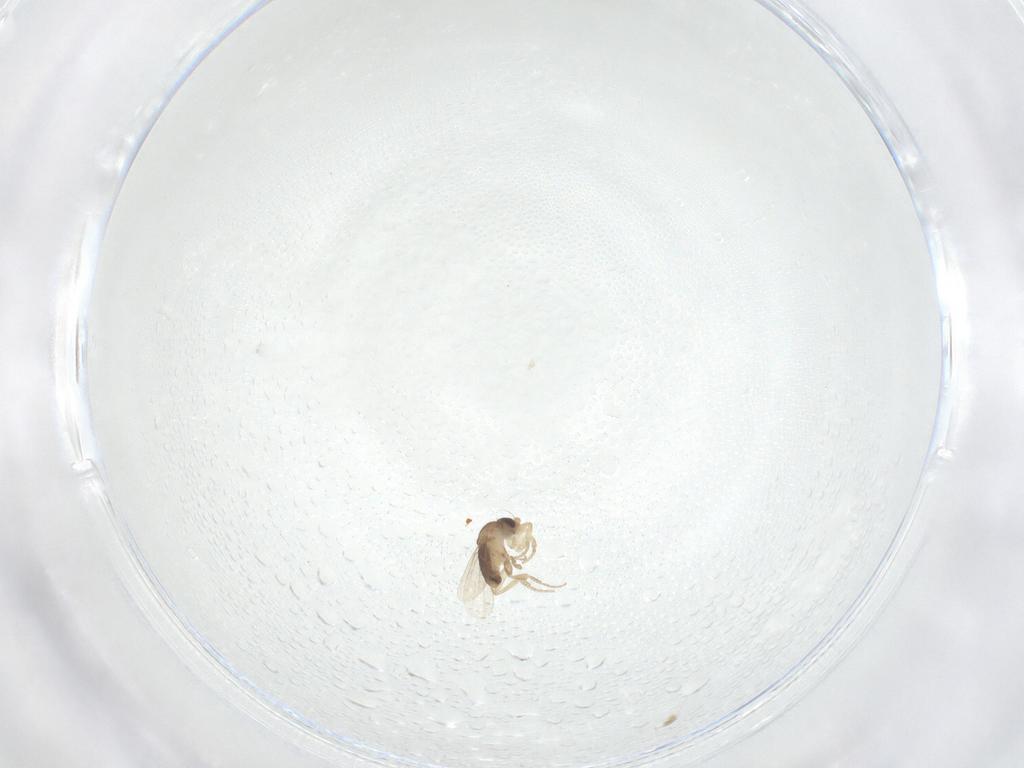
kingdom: Animalia
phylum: Arthropoda
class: Insecta
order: Diptera
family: Phoridae
